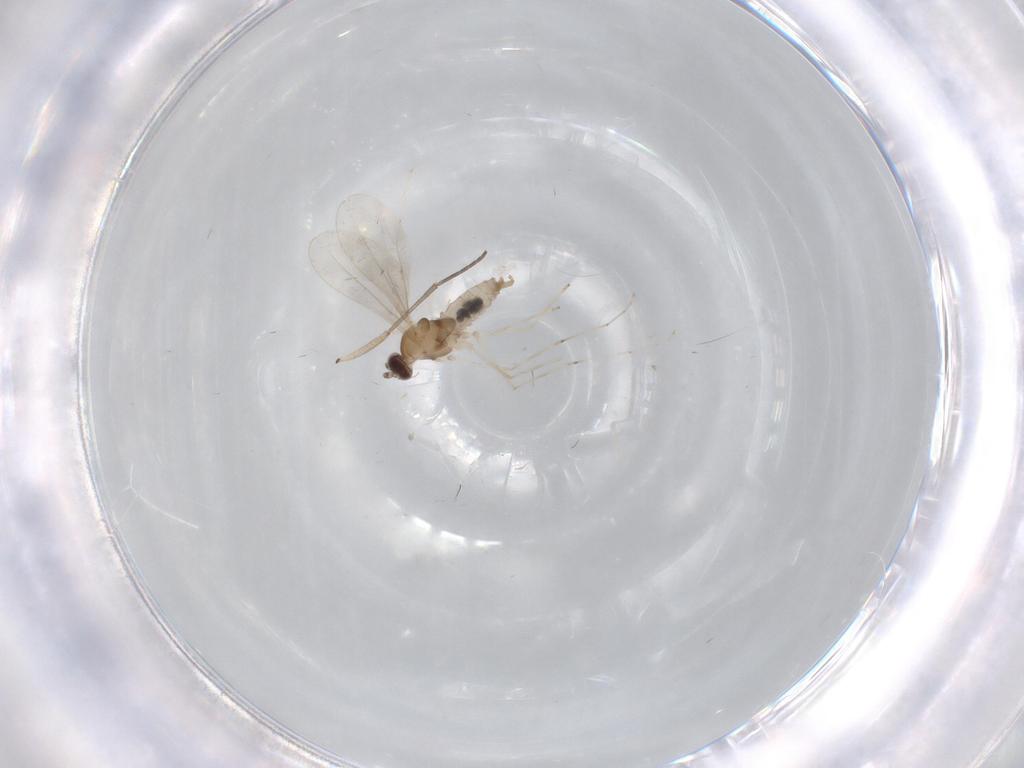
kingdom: Animalia
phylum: Arthropoda
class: Insecta
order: Diptera
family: Cecidomyiidae
